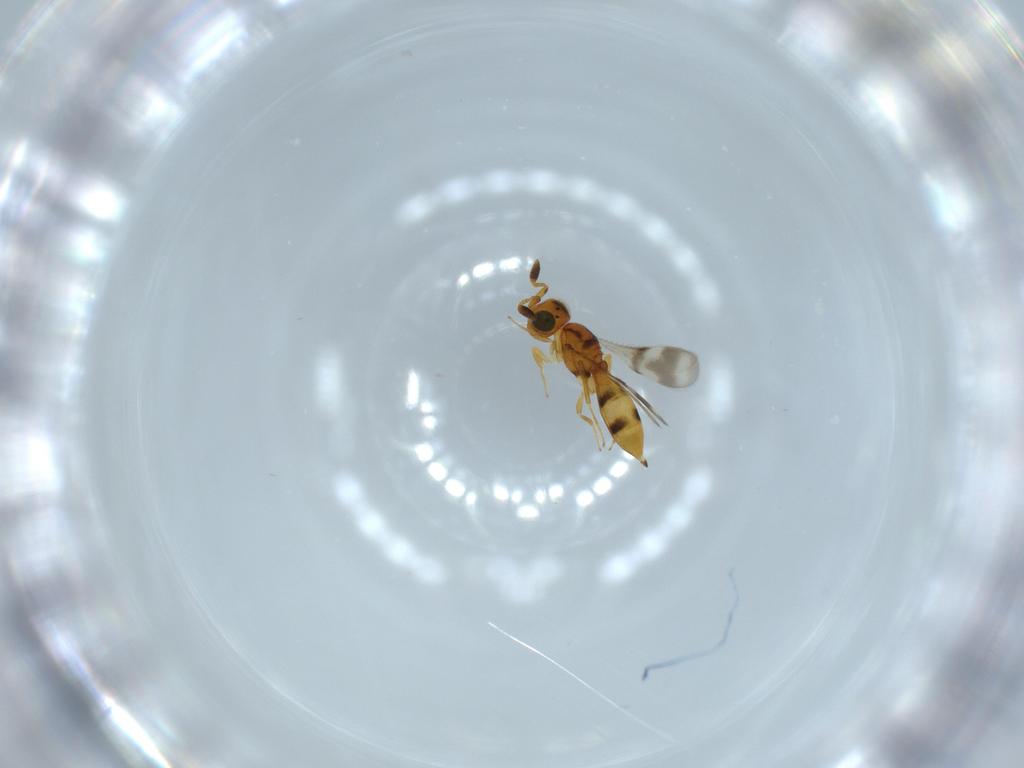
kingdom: Animalia
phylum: Arthropoda
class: Insecta
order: Hymenoptera
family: Scelionidae
